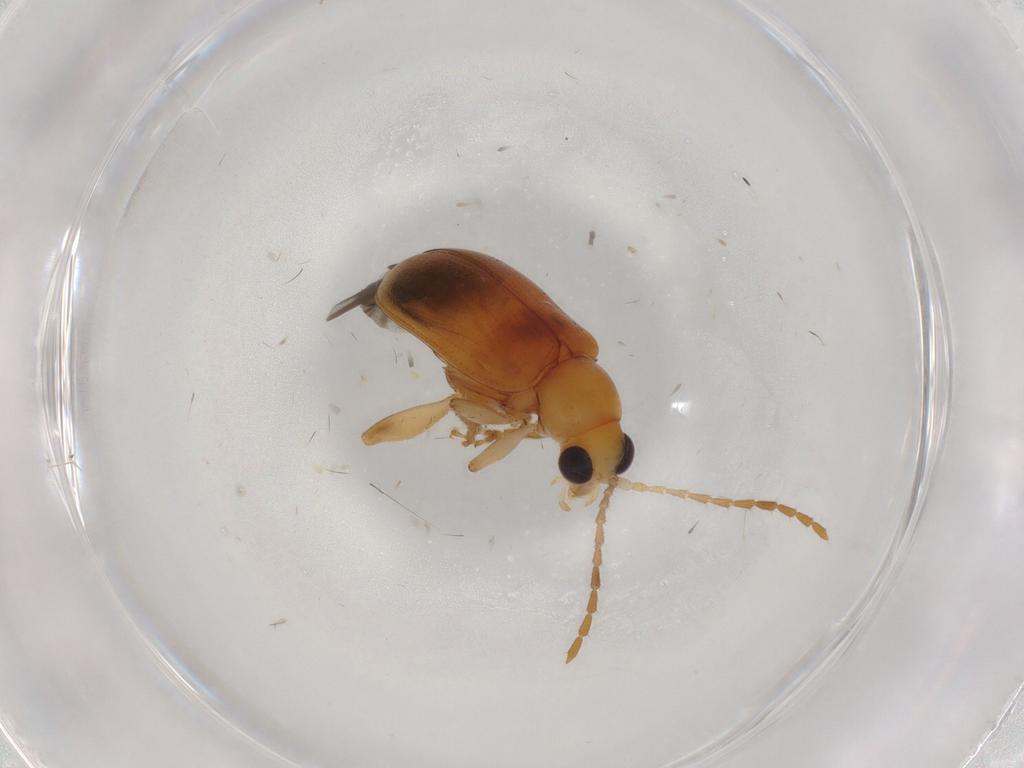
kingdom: Animalia
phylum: Arthropoda
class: Insecta
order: Coleoptera
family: Chrysomelidae
